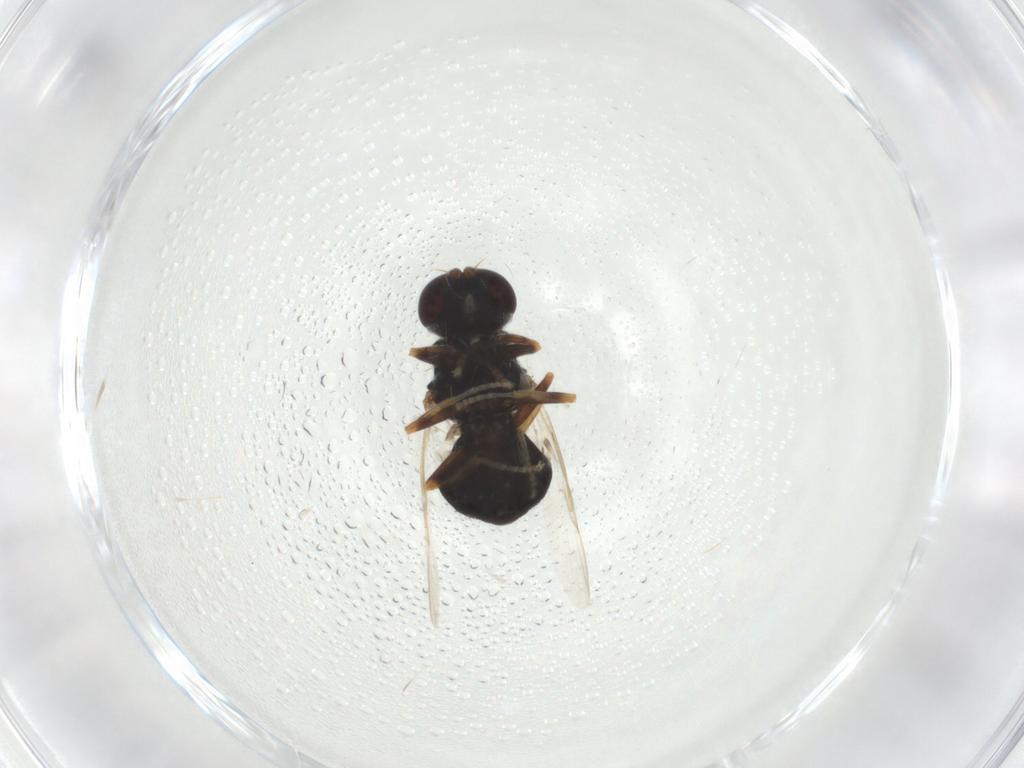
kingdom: Animalia
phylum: Arthropoda
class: Insecta
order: Diptera
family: Stratiomyidae
